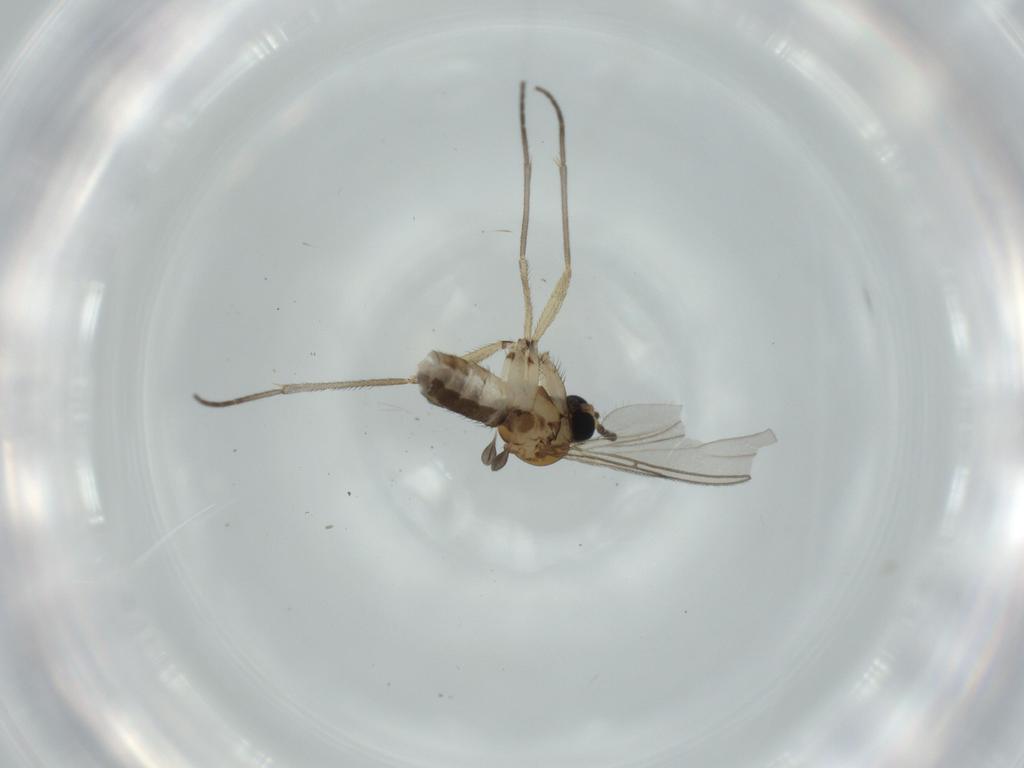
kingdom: Animalia
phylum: Arthropoda
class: Insecta
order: Diptera
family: Sciaridae
